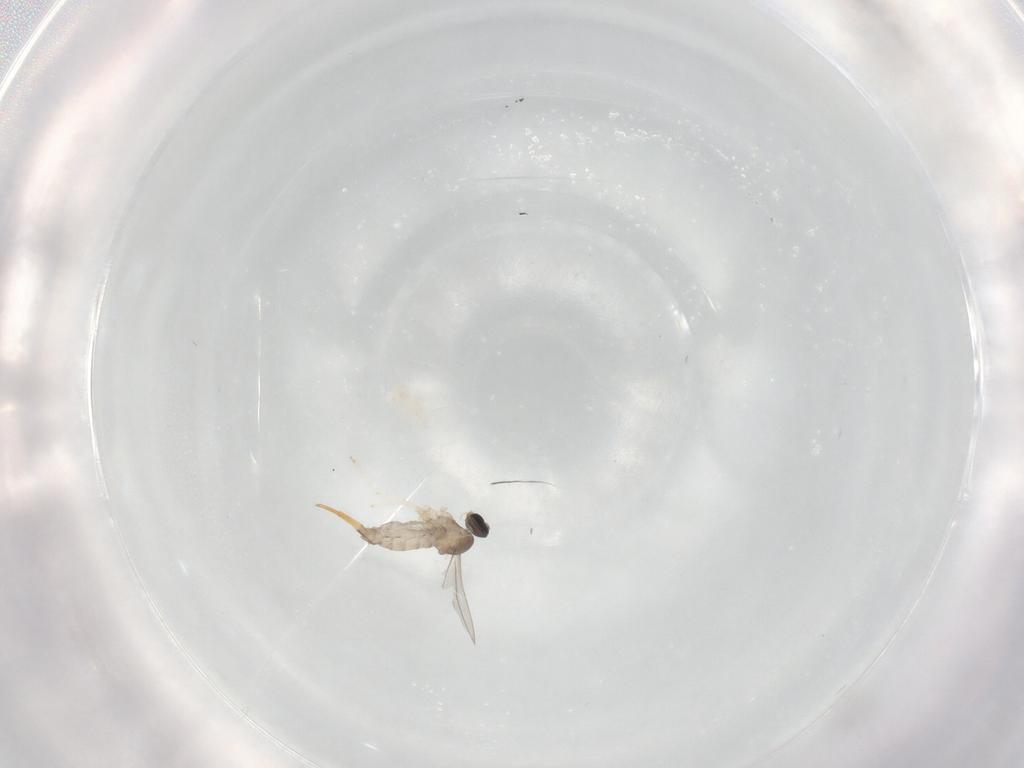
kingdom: Animalia
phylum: Arthropoda
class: Insecta
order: Diptera
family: Cecidomyiidae
